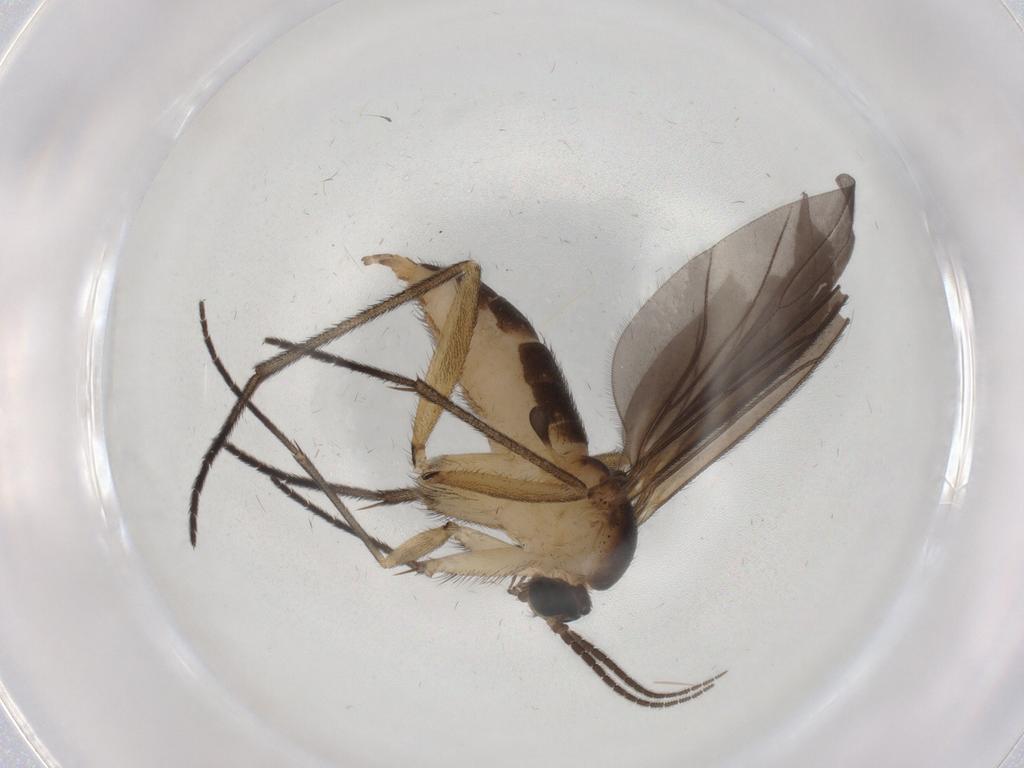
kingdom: Animalia
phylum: Arthropoda
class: Insecta
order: Diptera
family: Sciaridae
